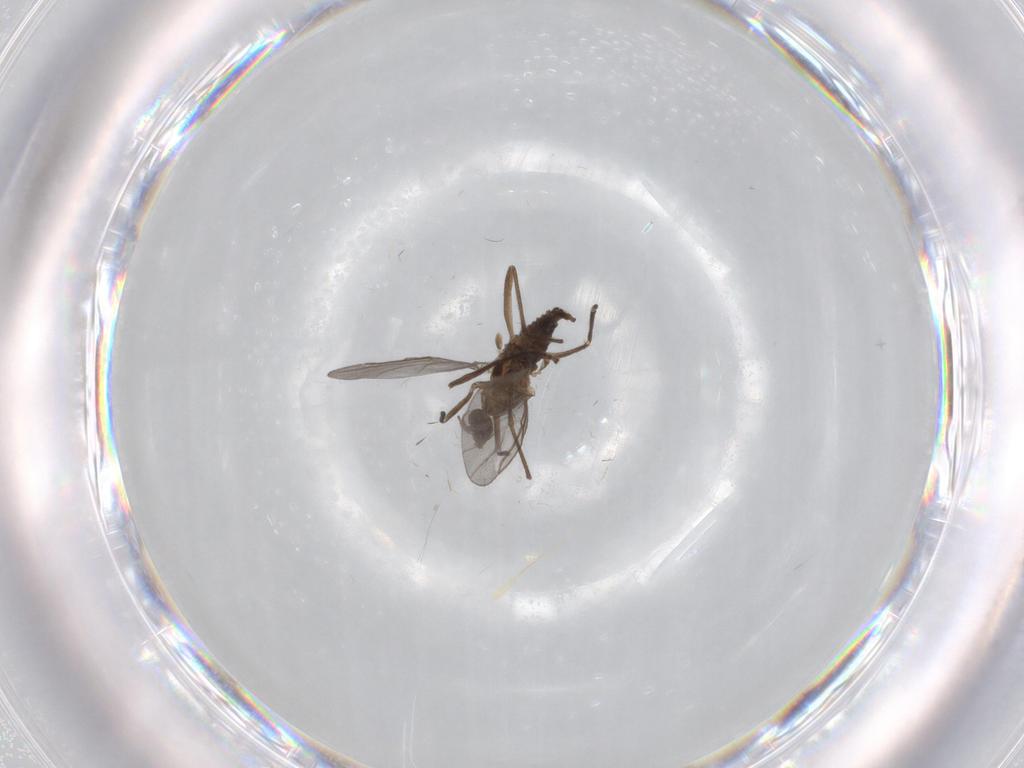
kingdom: Animalia
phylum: Arthropoda
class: Insecta
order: Diptera
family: Cecidomyiidae
